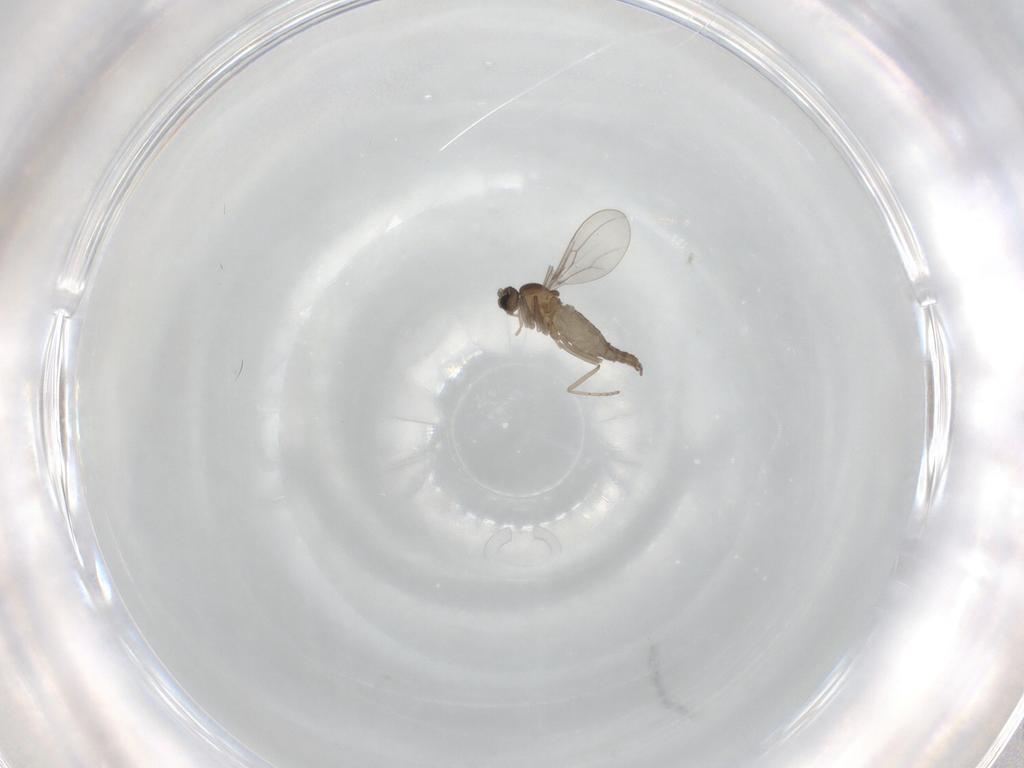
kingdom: Animalia
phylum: Arthropoda
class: Insecta
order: Diptera
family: Cecidomyiidae
